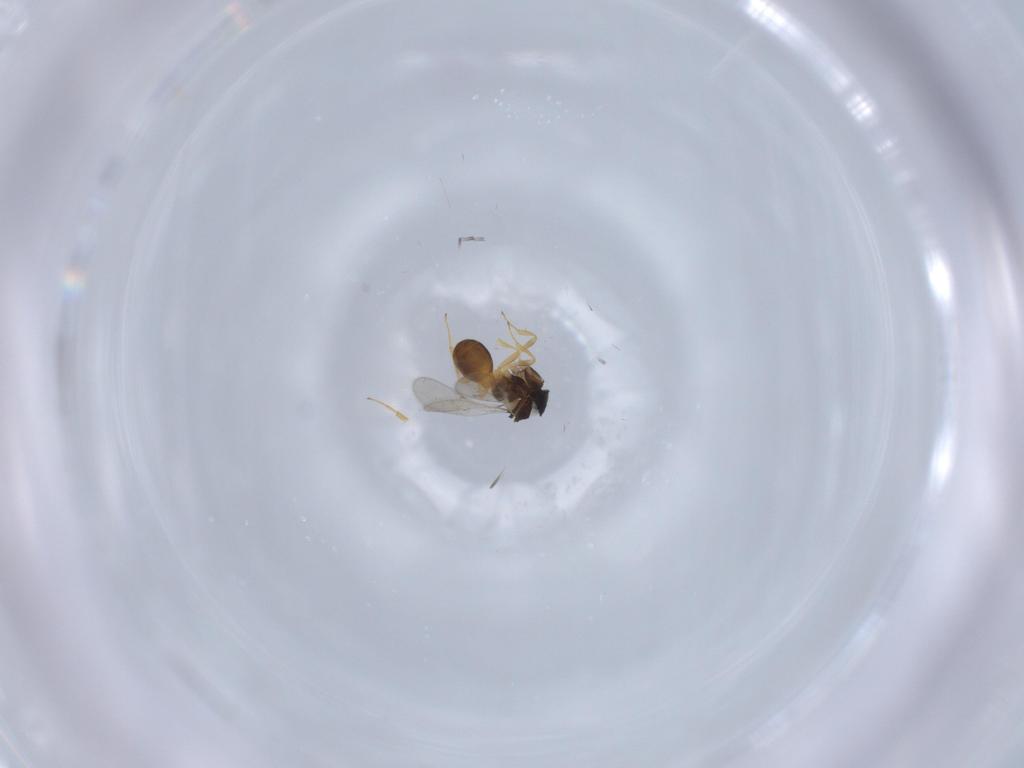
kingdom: Animalia
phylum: Arthropoda
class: Insecta
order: Hymenoptera
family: Scelionidae
